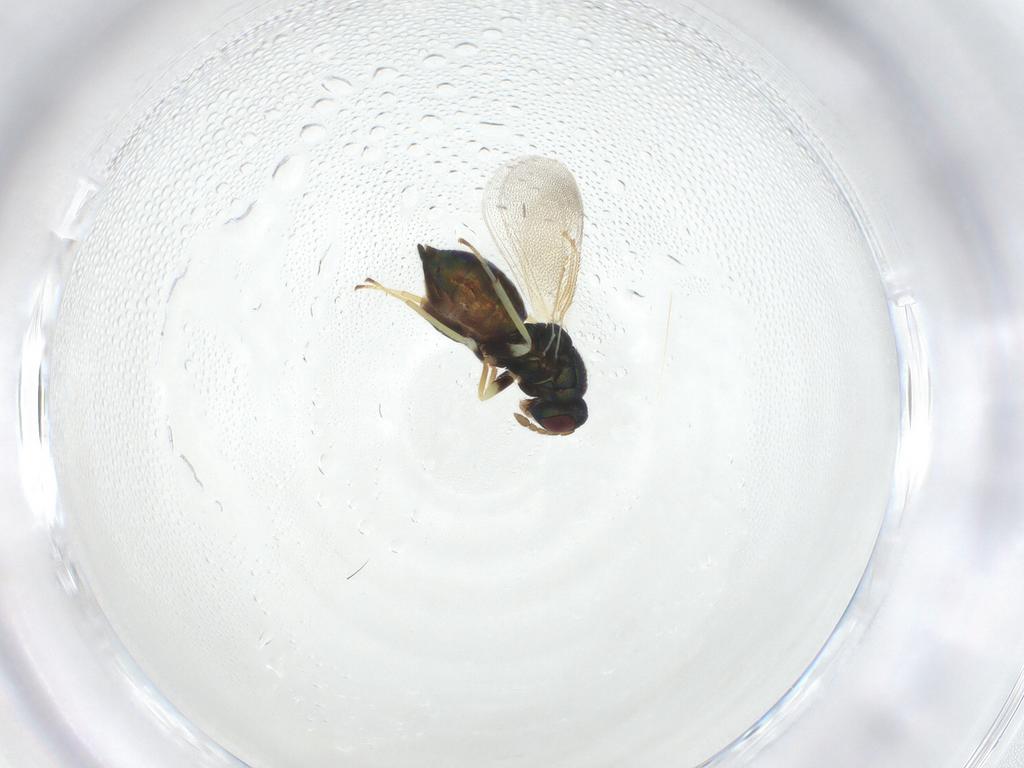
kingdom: Animalia
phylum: Arthropoda
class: Insecta
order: Hymenoptera
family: Eulophidae
